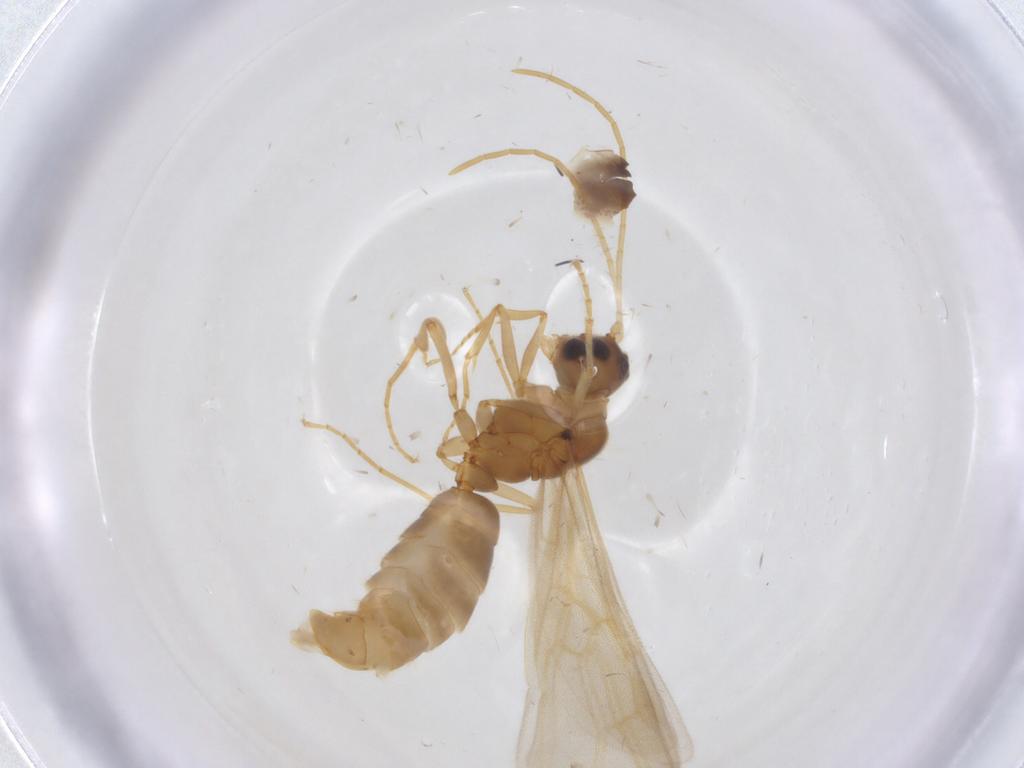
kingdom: Animalia
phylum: Arthropoda
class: Insecta
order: Hymenoptera
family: Formicidae
